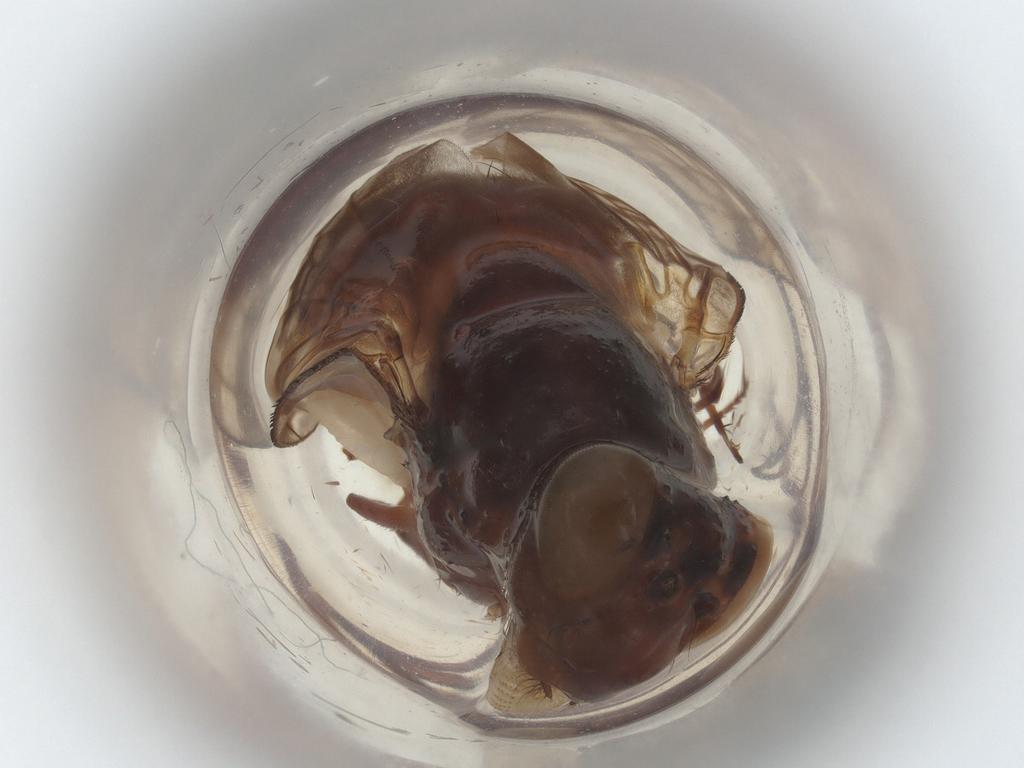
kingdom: Animalia
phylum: Arthropoda
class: Insecta
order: Diptera
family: Lauxaniidae
